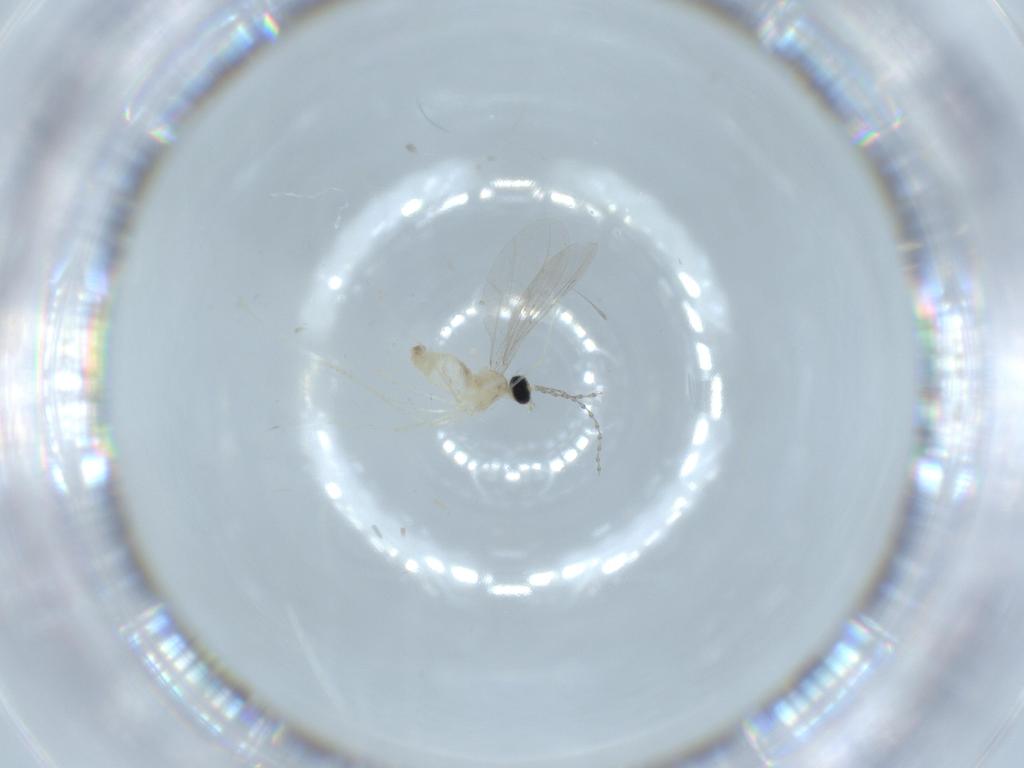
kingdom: Animalia
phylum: Arthropoda
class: Insecta
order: Diptera
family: Cecidomyiidae
